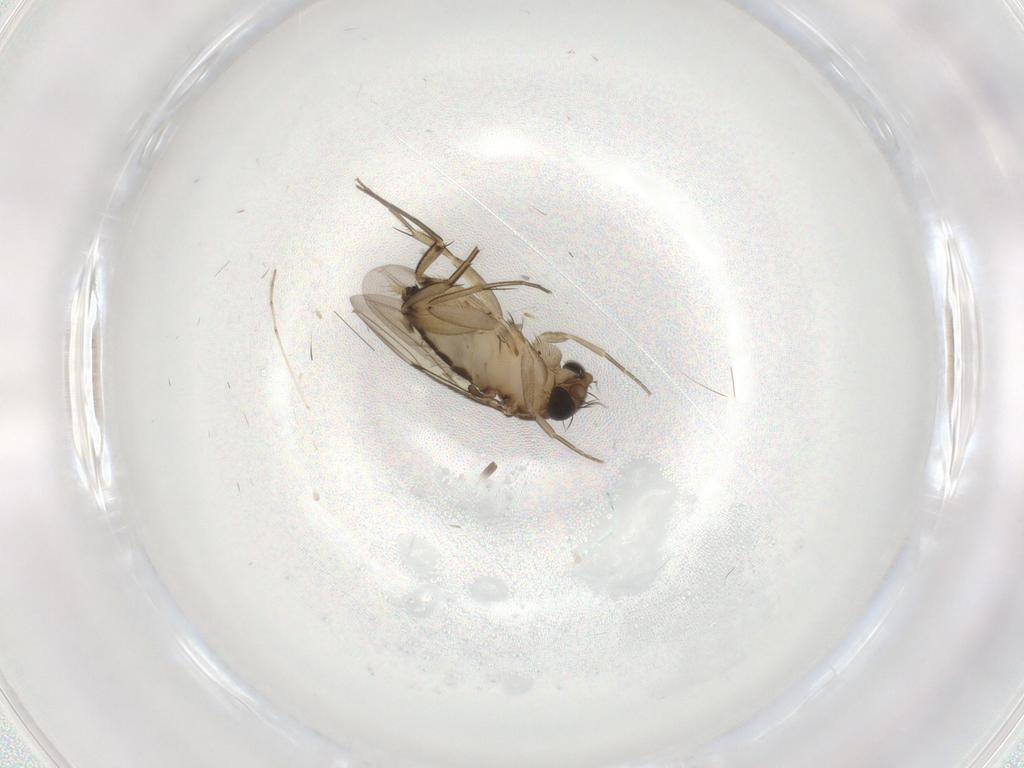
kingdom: Animalia
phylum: Arthropoda
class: Insecta
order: Diptera
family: Phoridae
